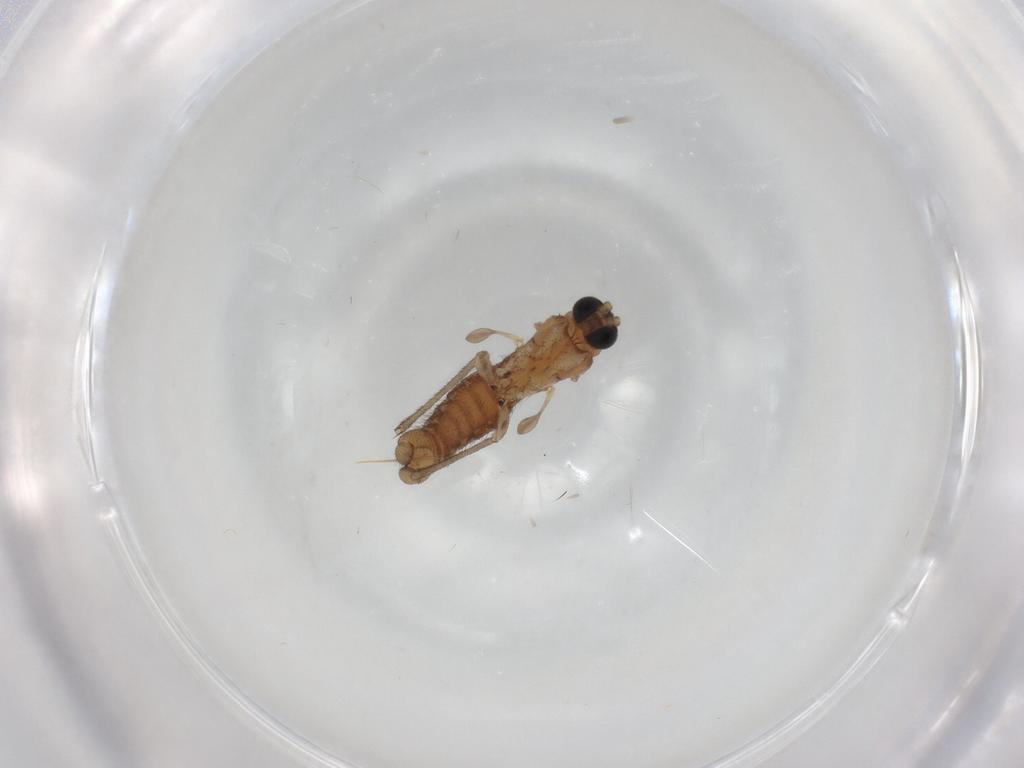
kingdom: Animalia
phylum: Arthropoda
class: Insecta
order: Diptera
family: Sciaridae
